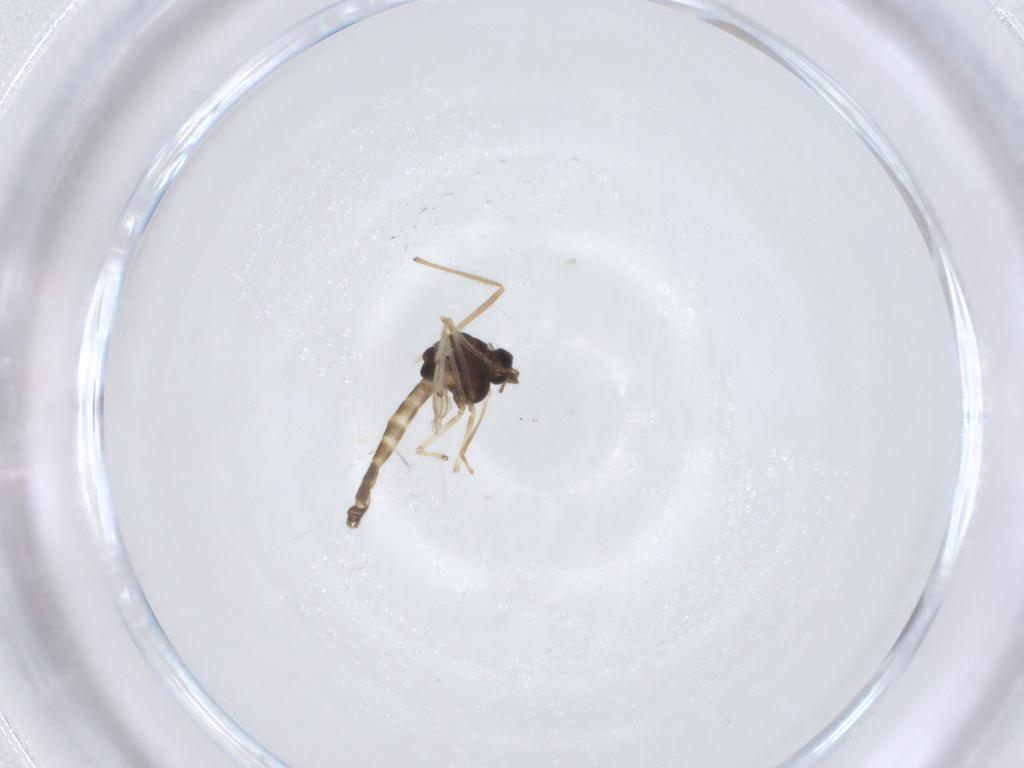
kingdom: Animalia
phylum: Arthropoda
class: Insecta
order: Diptera
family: Chironomidae
